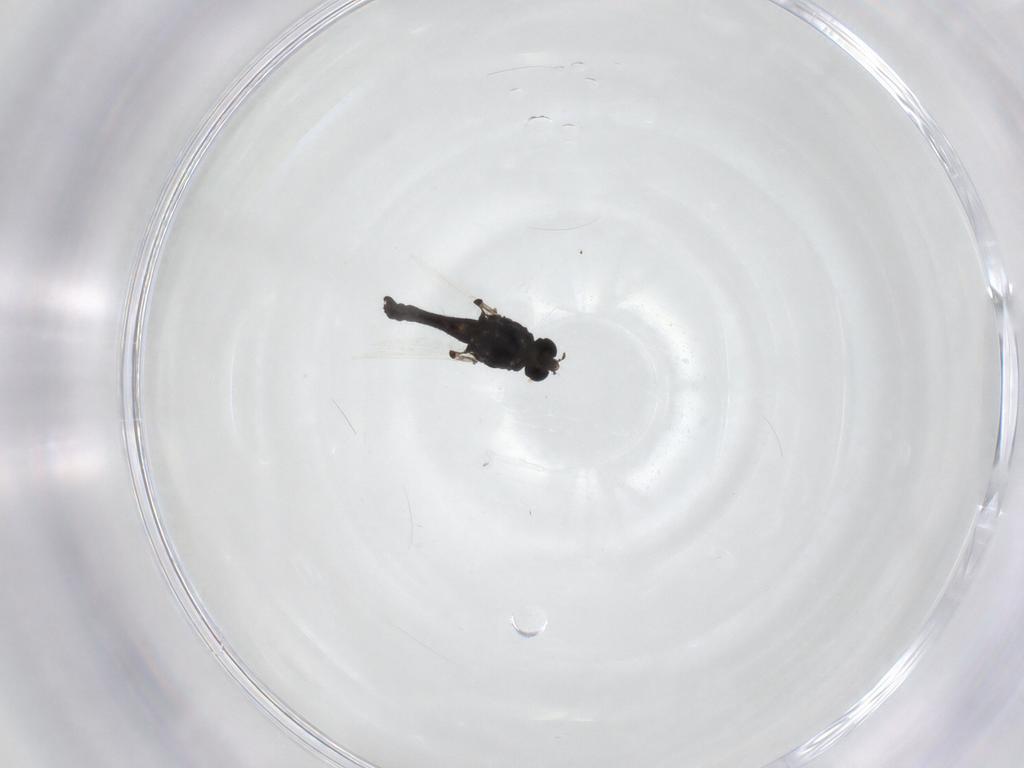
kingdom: Animalia
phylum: Arthropoda
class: Insecta
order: Diptera
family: Chironomidae
